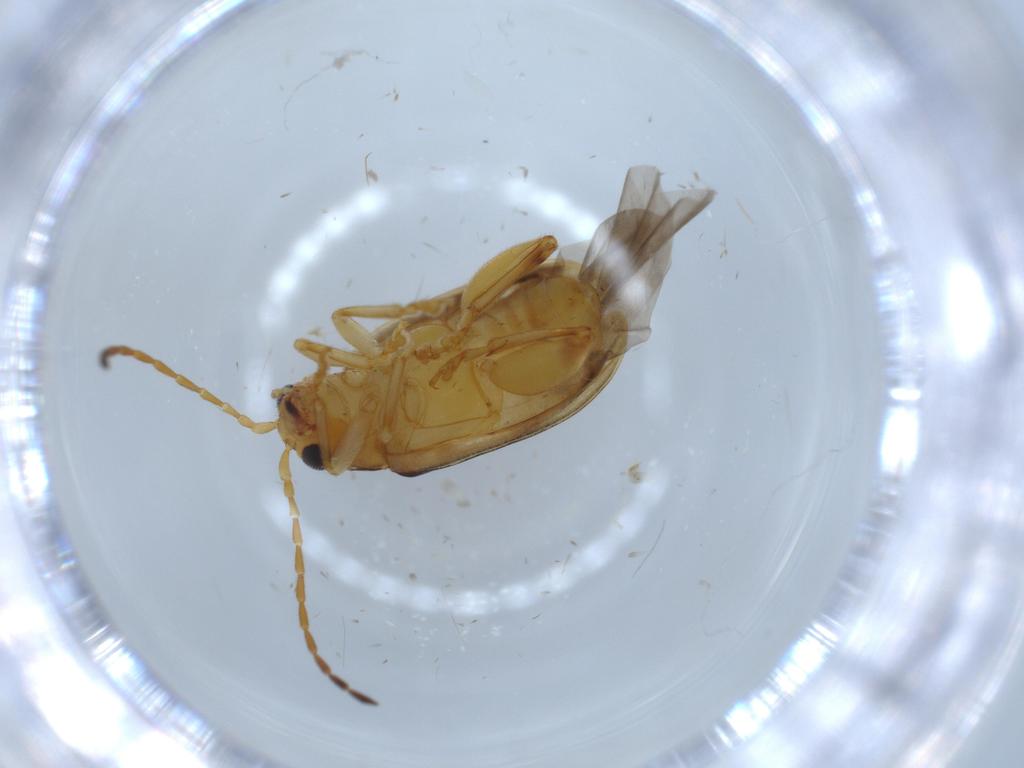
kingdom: Animalia
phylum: Arthropoda
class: Insecta
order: Coleoptera
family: Chrysomelidae
